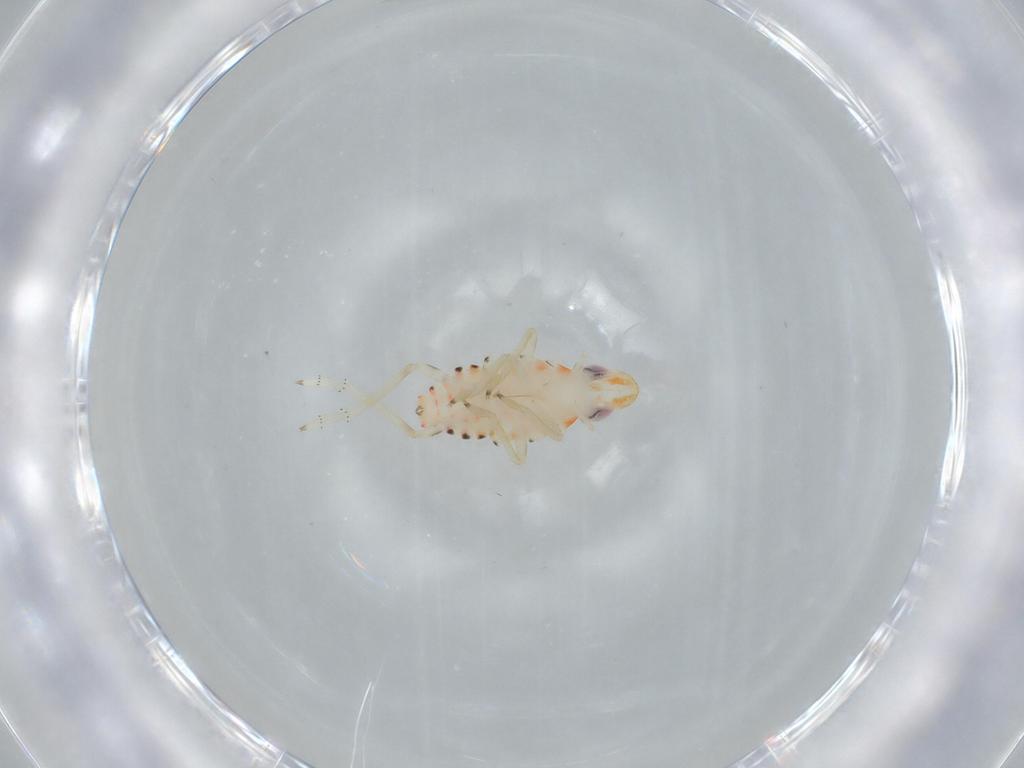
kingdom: Animalia
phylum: Arthropoda
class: Insecta
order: Hemiptera
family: Tropiduchidae
